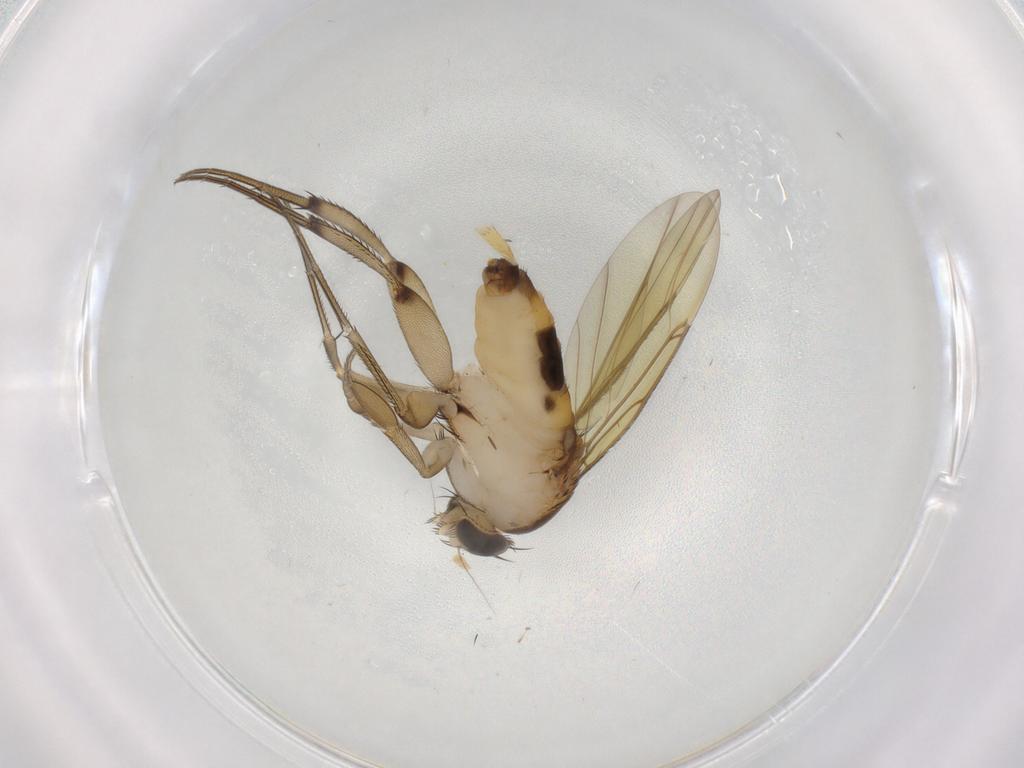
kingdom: Animalia
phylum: Arthropoda
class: Insecta
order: Diptera
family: Phoridae
